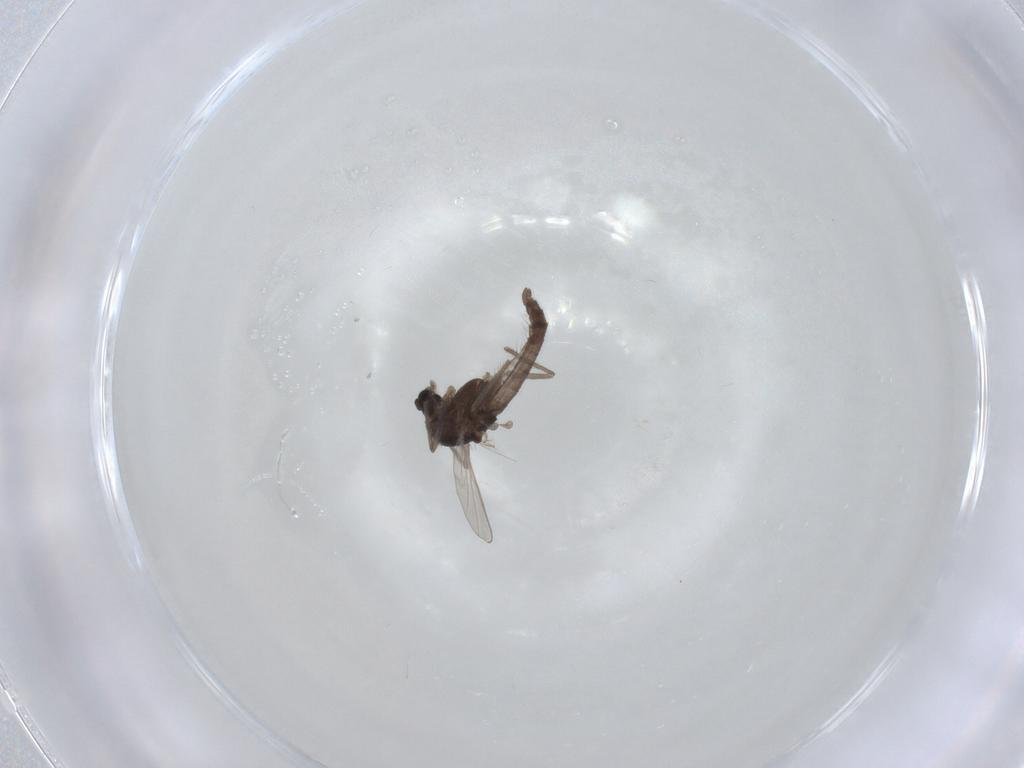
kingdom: Animalia
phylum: Arthropoda
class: Insecta
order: Diptera
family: Chironomidae
